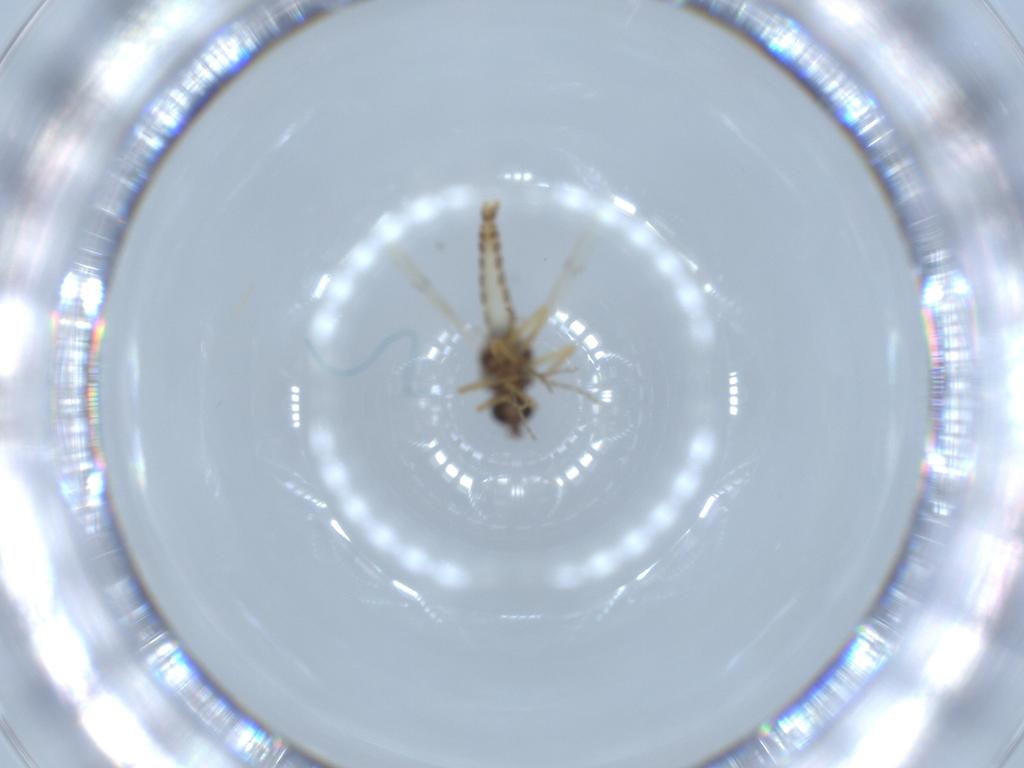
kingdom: Animalia
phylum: Arthropoda
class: Insecta
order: Diptera
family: Ceratopogonidae
